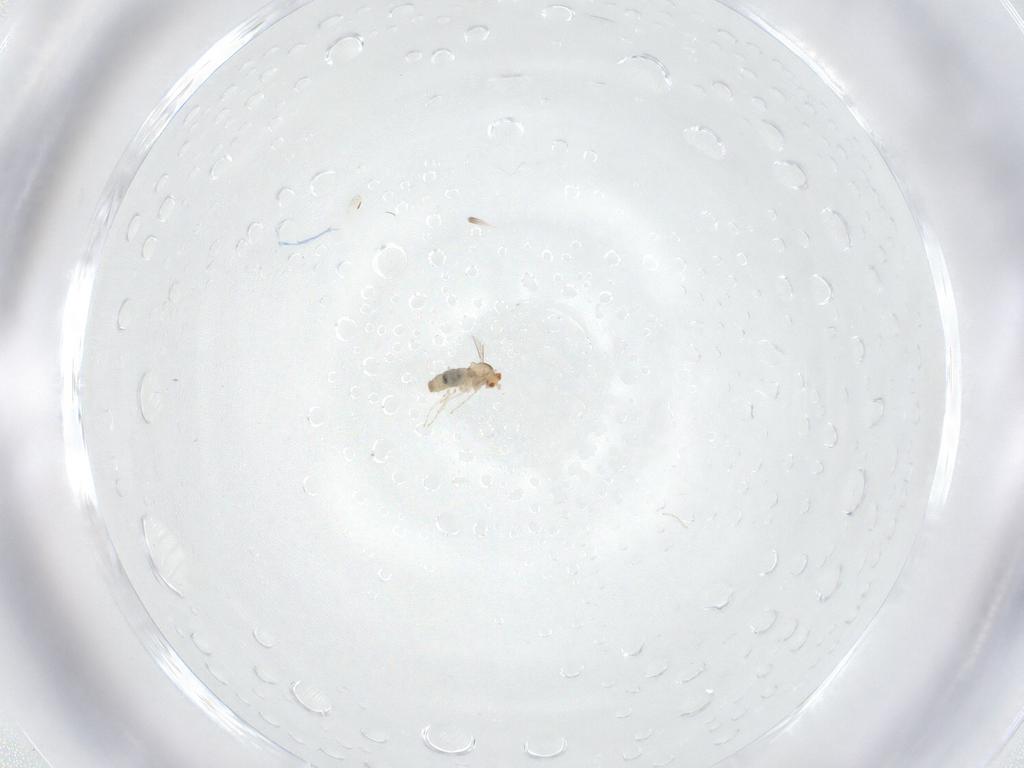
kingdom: Animalia
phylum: Arthropoda
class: Insecta
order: Diptera
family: Cecidomyiidae
